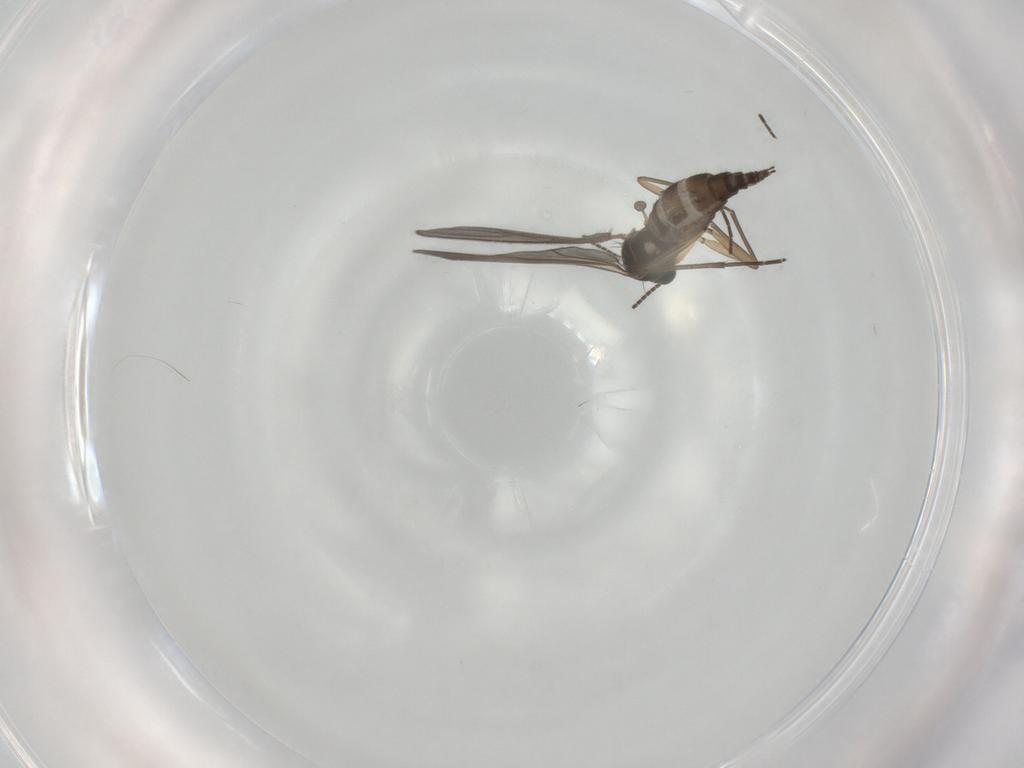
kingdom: Animalia
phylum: Arthropoda
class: Insecta
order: Diptera
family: Sciaridae
